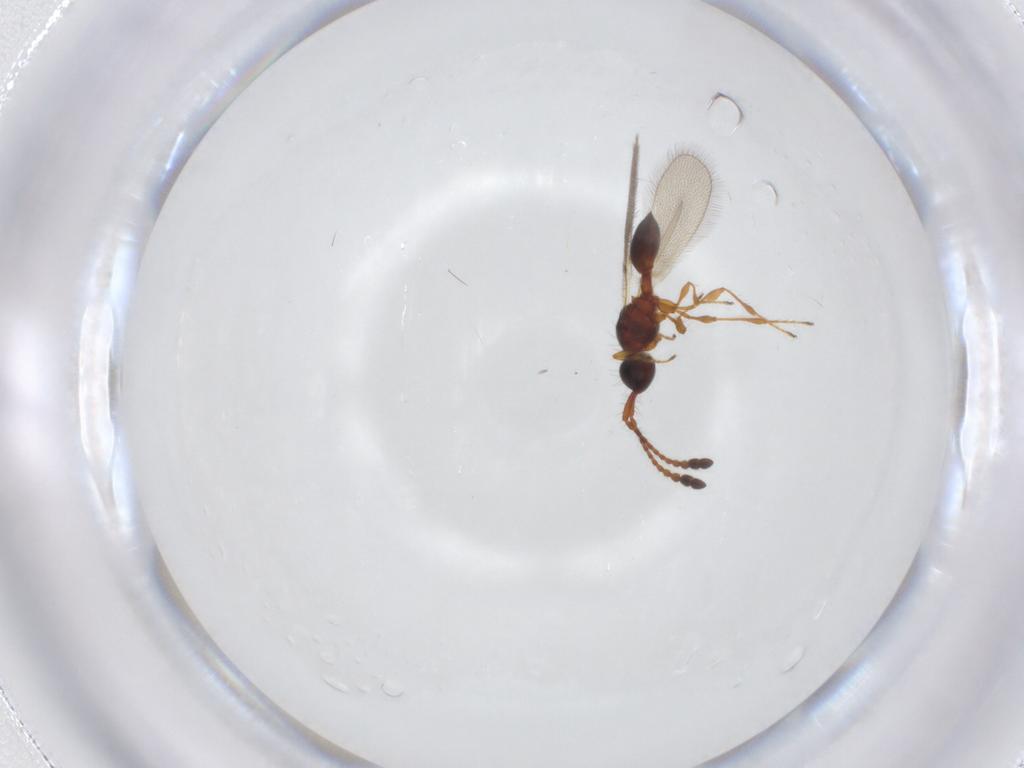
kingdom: Animalia
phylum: Arthropoda
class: Insecta
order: Hymenoptera
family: Diapriidae
